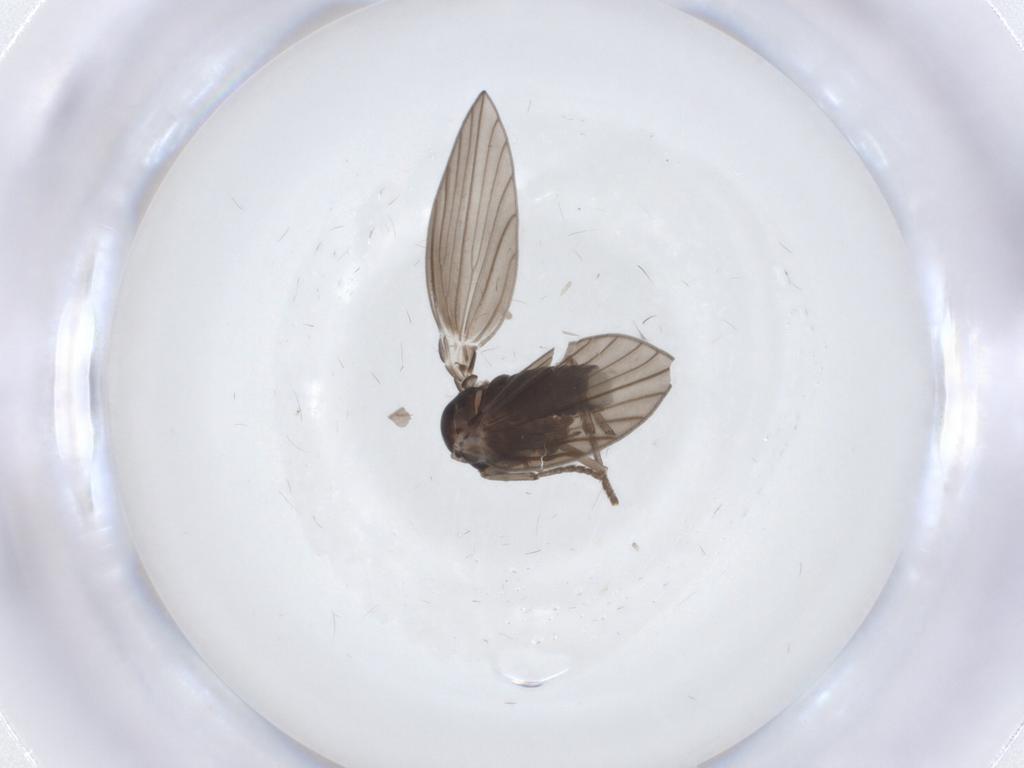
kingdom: Animalia
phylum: Arthropoda
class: Insecta
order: Diptera
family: Psychodidae
